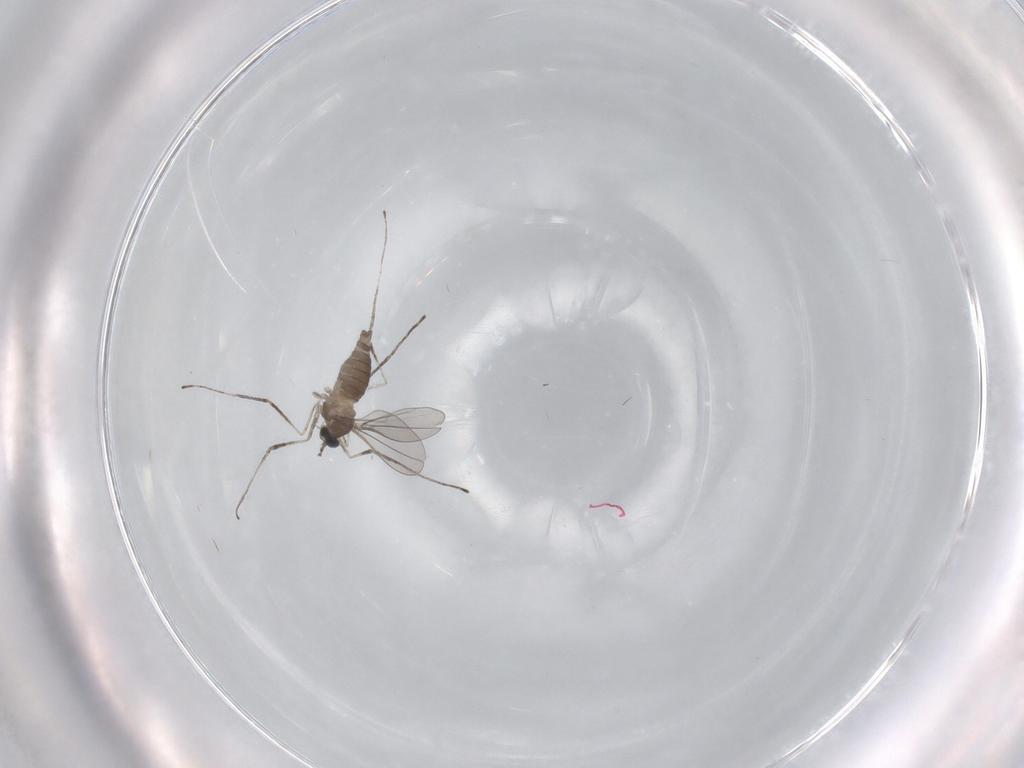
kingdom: Animalia
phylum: Arthropoda
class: Insecta
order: Diptera
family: Cecidomyiidae
